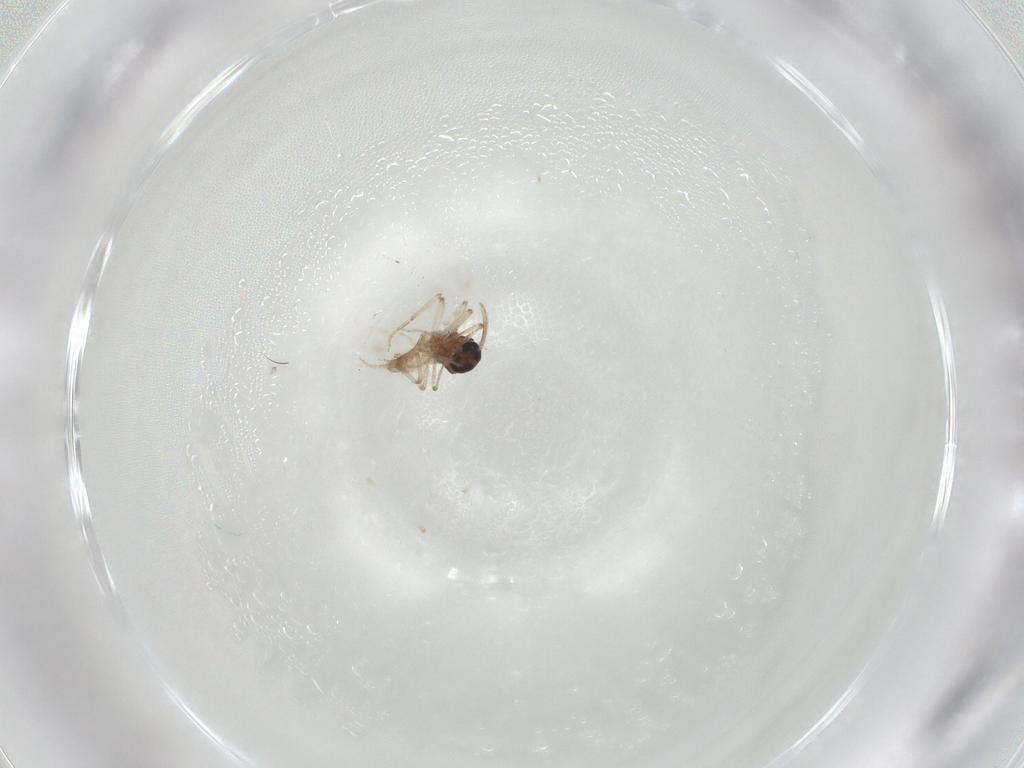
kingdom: Animalia
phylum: Arthropoda
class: Insecta
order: Diptera
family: Ceratopogonidae
